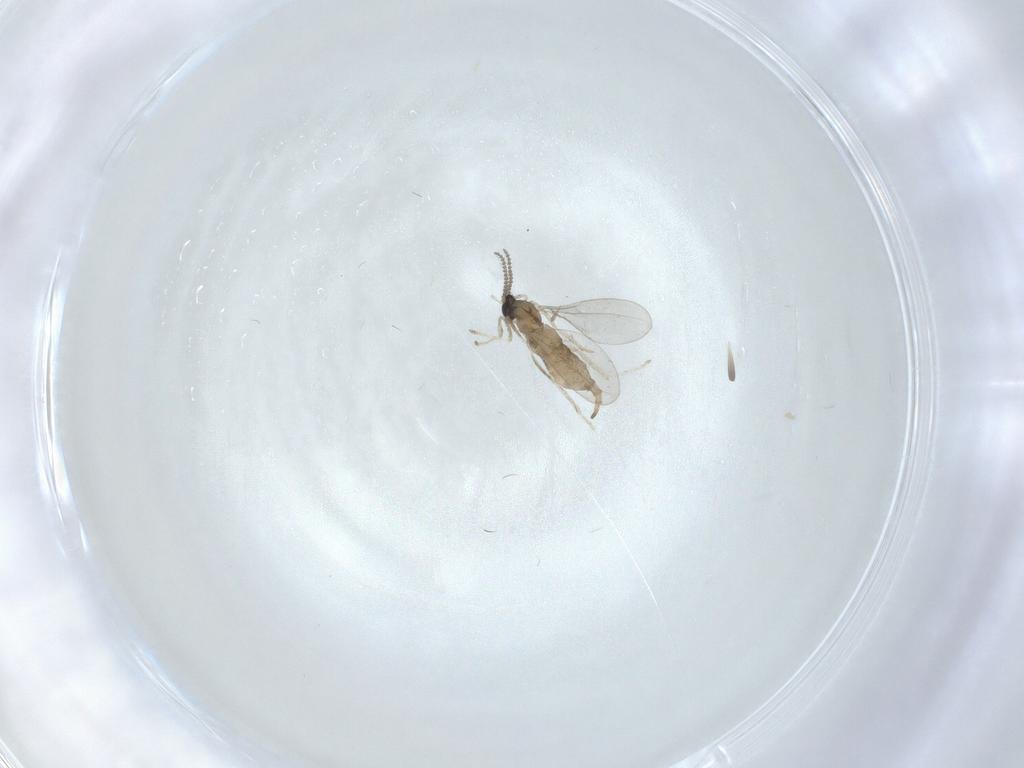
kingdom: Animalia
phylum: Arthropoda
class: Insecta
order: Diptera
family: Cecidomyiidae
